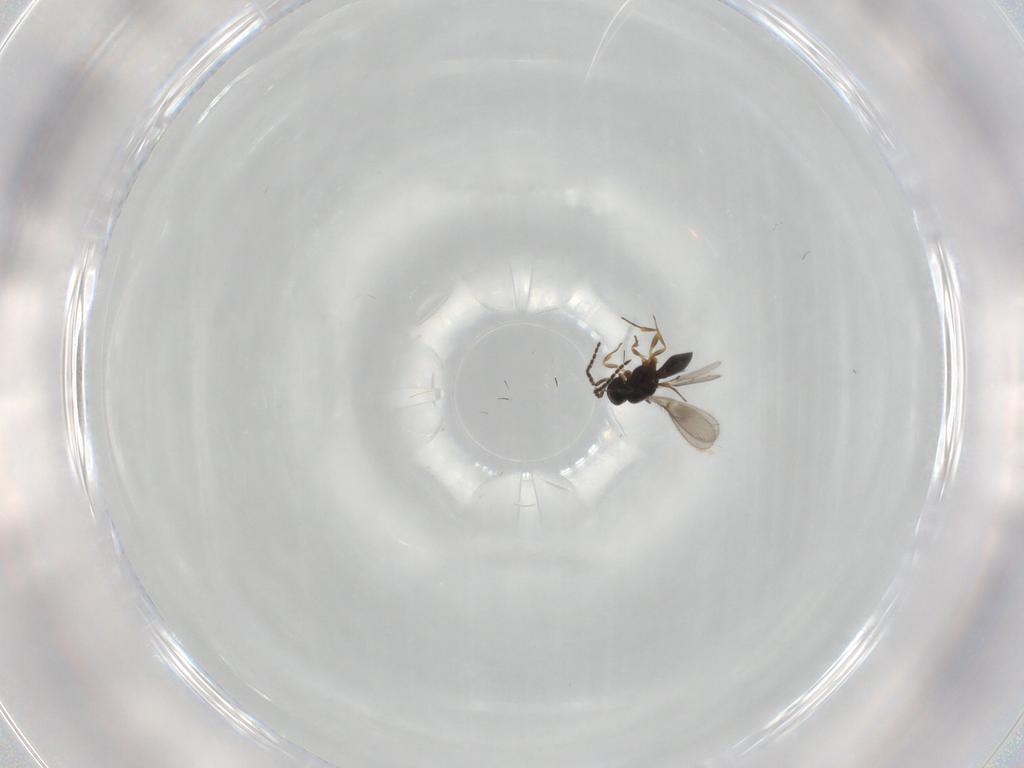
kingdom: Animalia
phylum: Arthropoda
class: Insecta
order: Hymenoptera
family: Scelionidae
